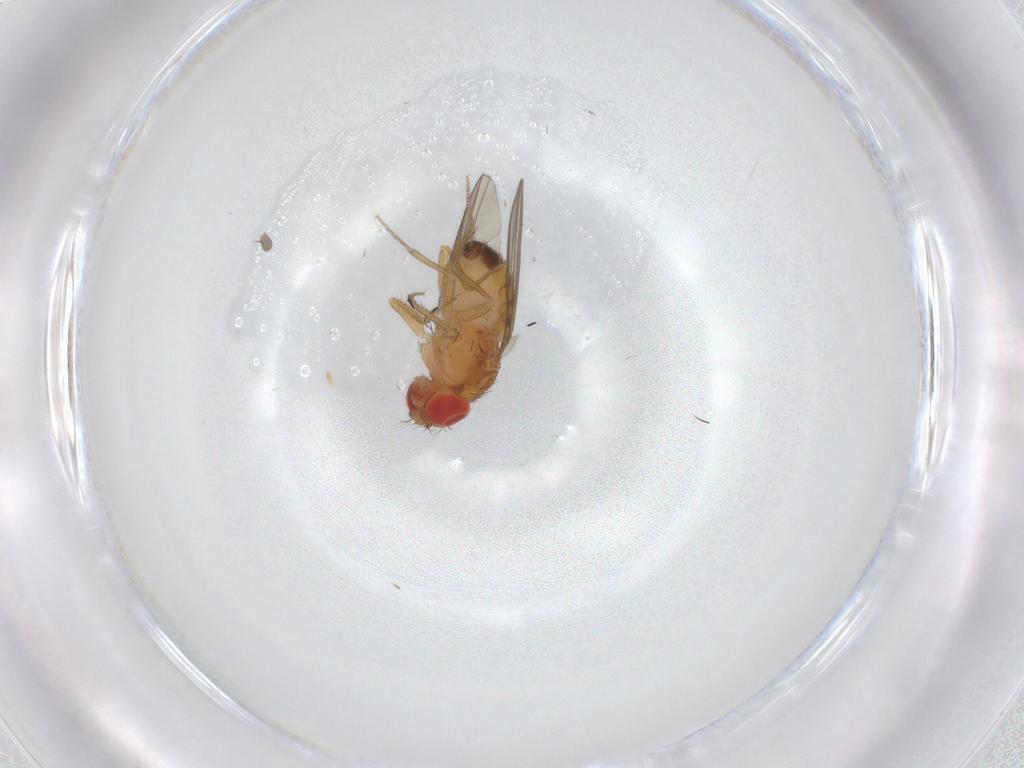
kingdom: Animalia
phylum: Arthropoda
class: Insecta
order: Diptera
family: Drosophilidae
